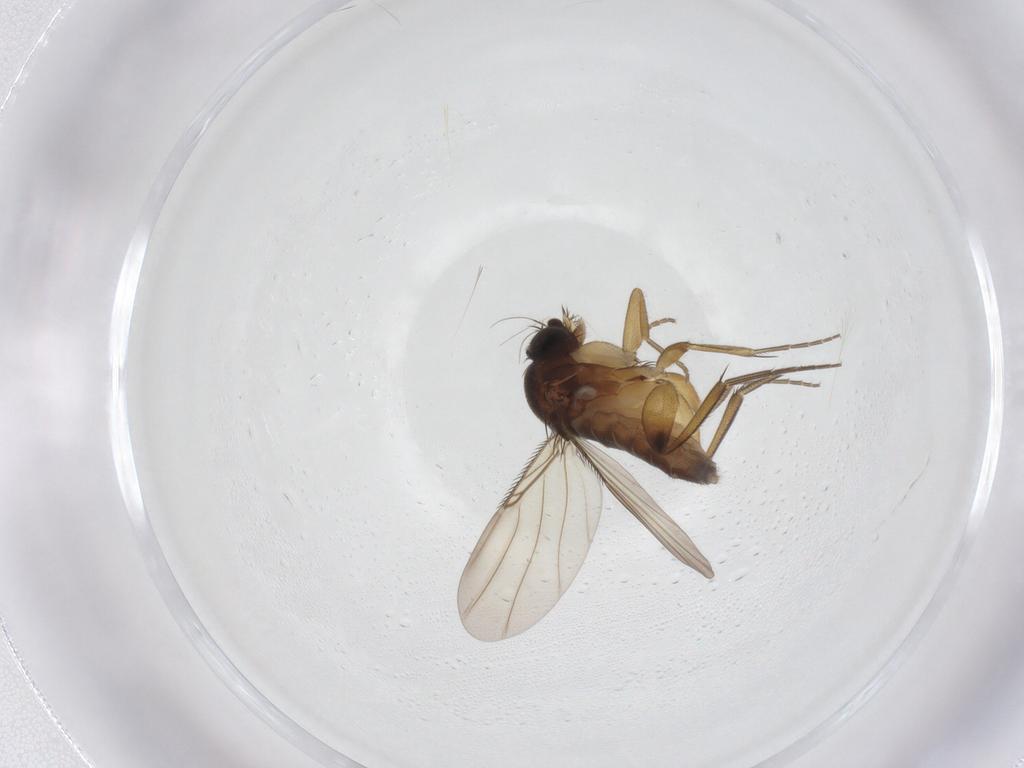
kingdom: Animalia
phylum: Arthropoda
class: Insecta
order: Diptera
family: Phoridae
